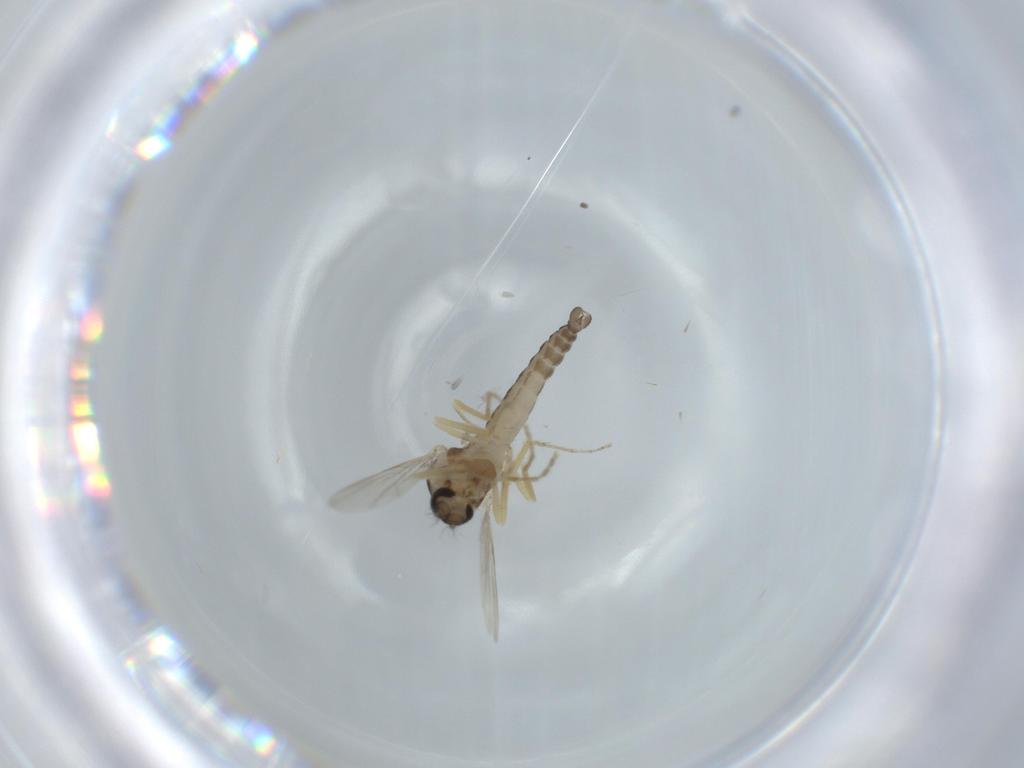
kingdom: Animalia
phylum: Arthropoda
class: Insecta
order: Diptera
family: Ceratopogonidae
